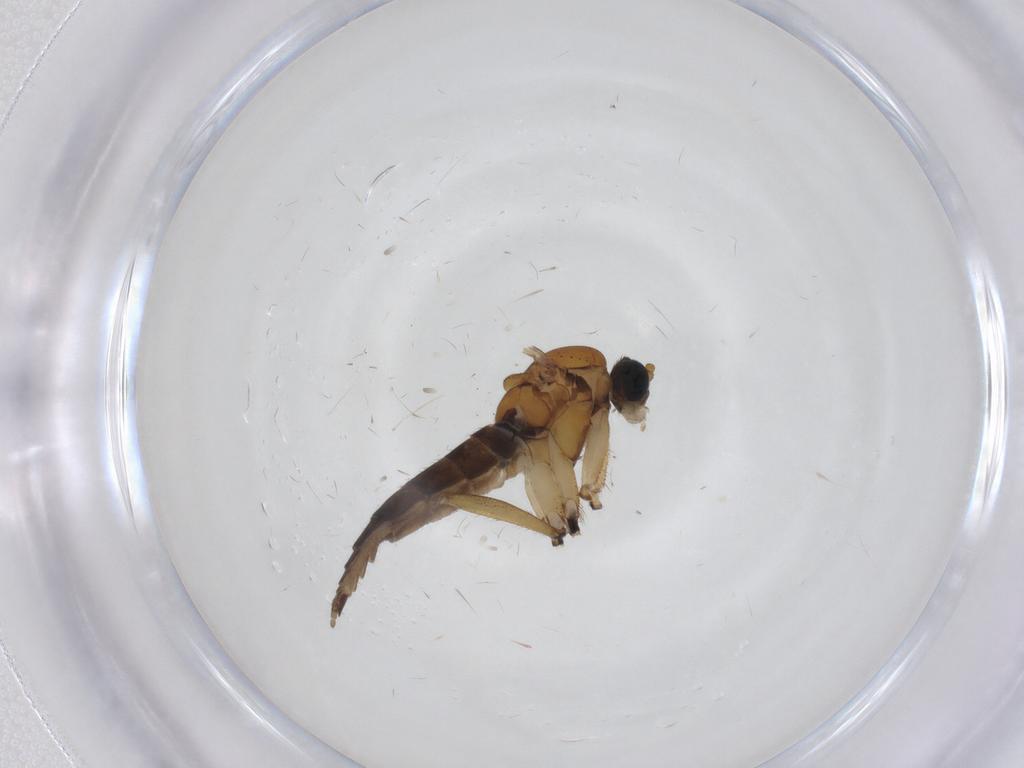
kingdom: Animalia
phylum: Arthropoda
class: Insecta
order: Diptera
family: Sciaridae
